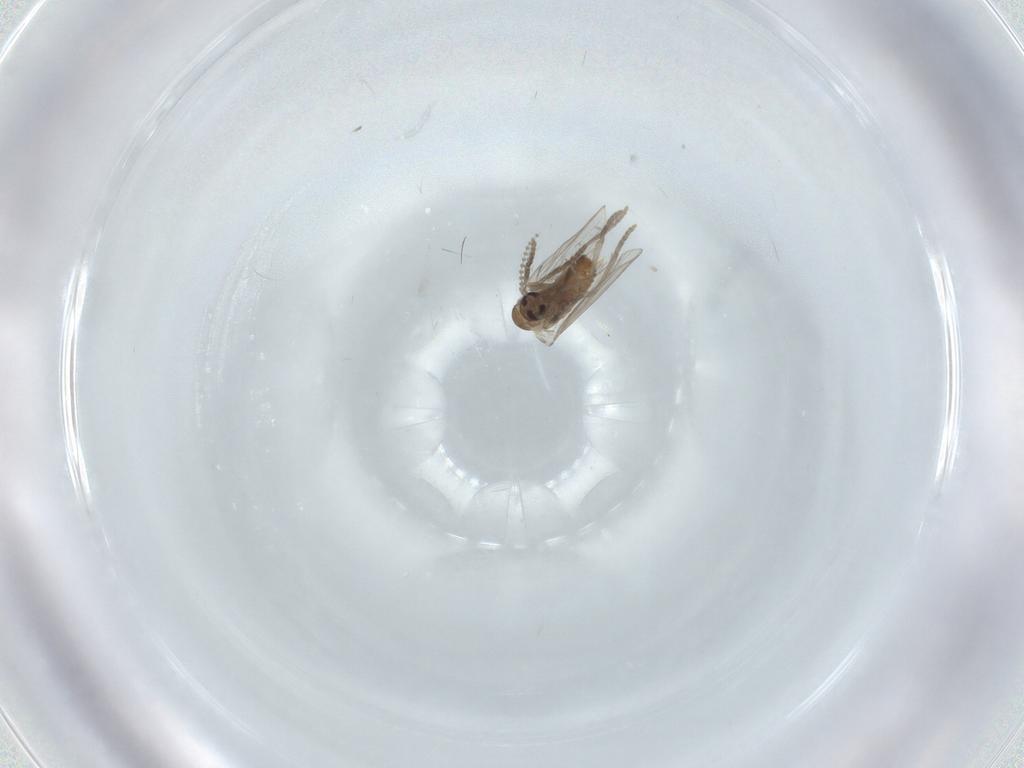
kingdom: Animalia
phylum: Arthropoda
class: Insecta
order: Diptera
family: Psychodidae
